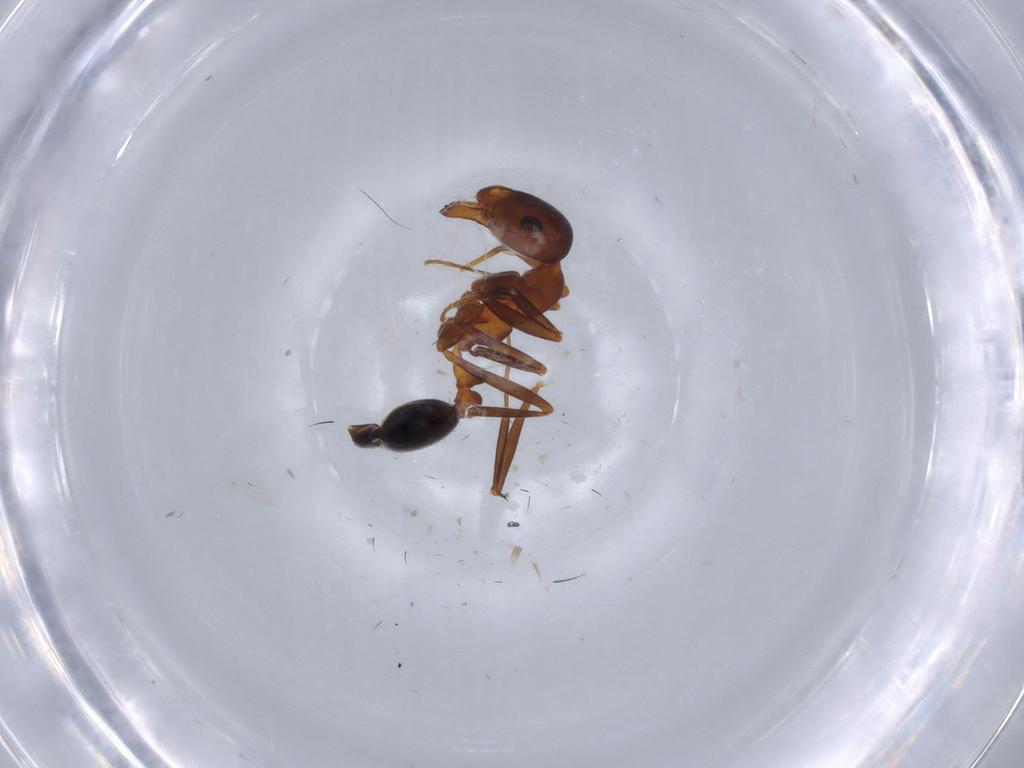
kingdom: Animalia
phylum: Arthropoda
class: Insecta
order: Hymenoptera
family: Formicidae
